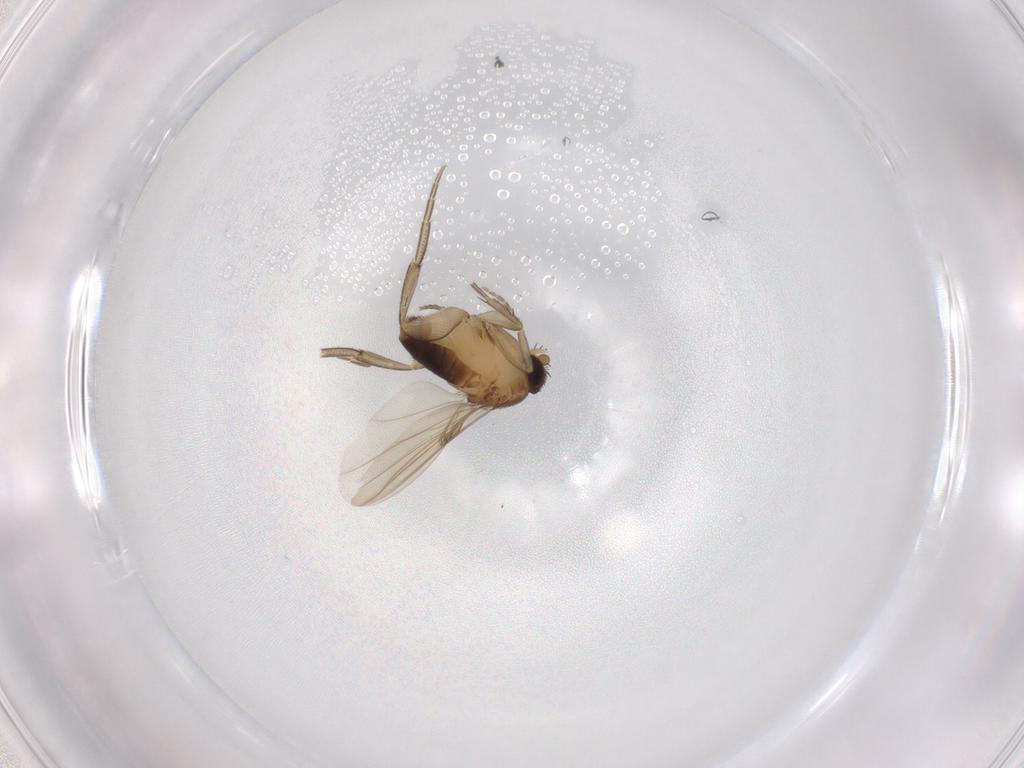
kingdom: Animalia
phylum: Arthropoda
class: Insecta
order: Diptera
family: Phoridae
